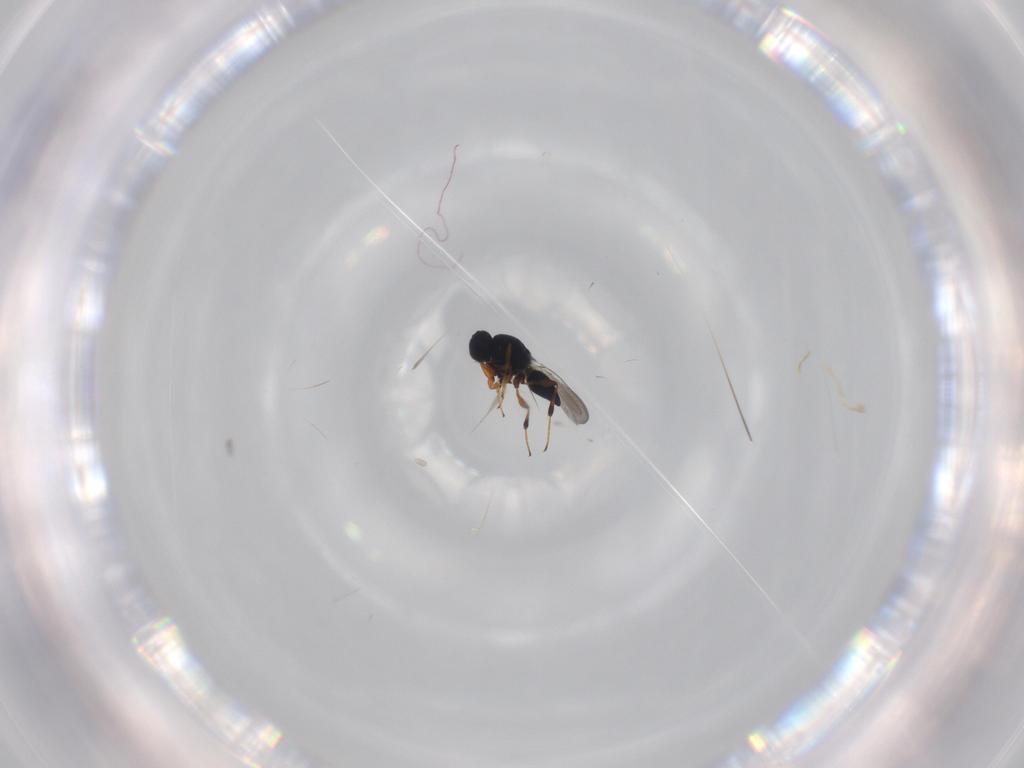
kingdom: Animalia
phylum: Arthropoda
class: Insecta
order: Hymenoptera
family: Platygastridae
